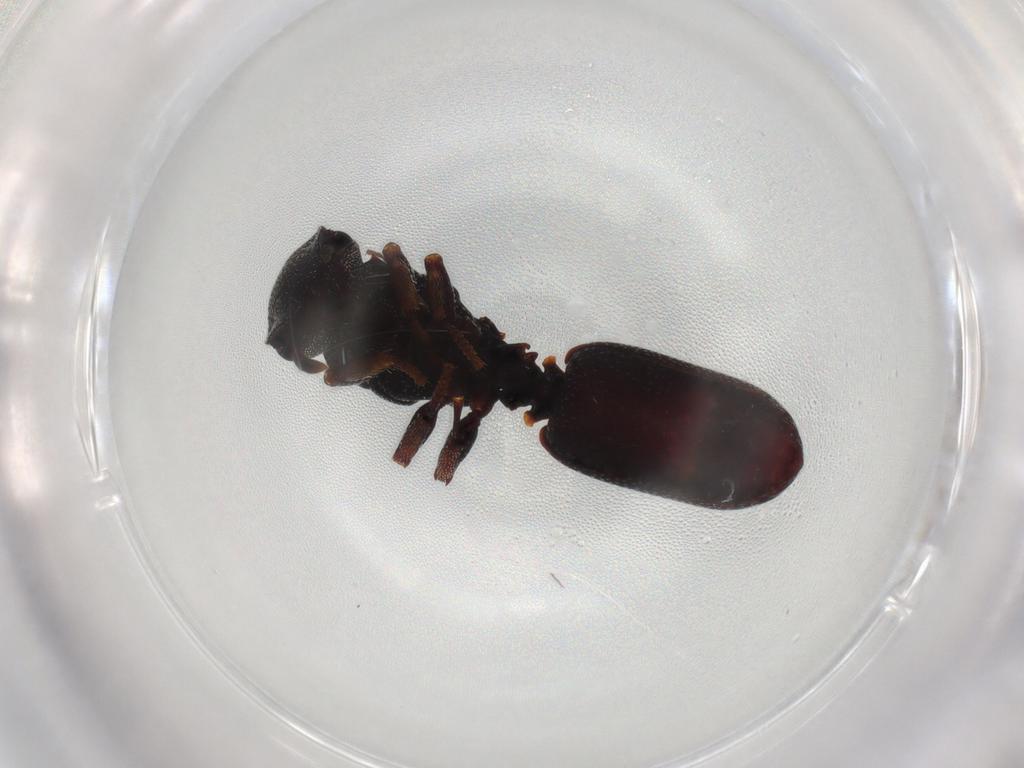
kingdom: Animalia
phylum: Arthropoda
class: Insecta
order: Hymenoptera
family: Formicidae
